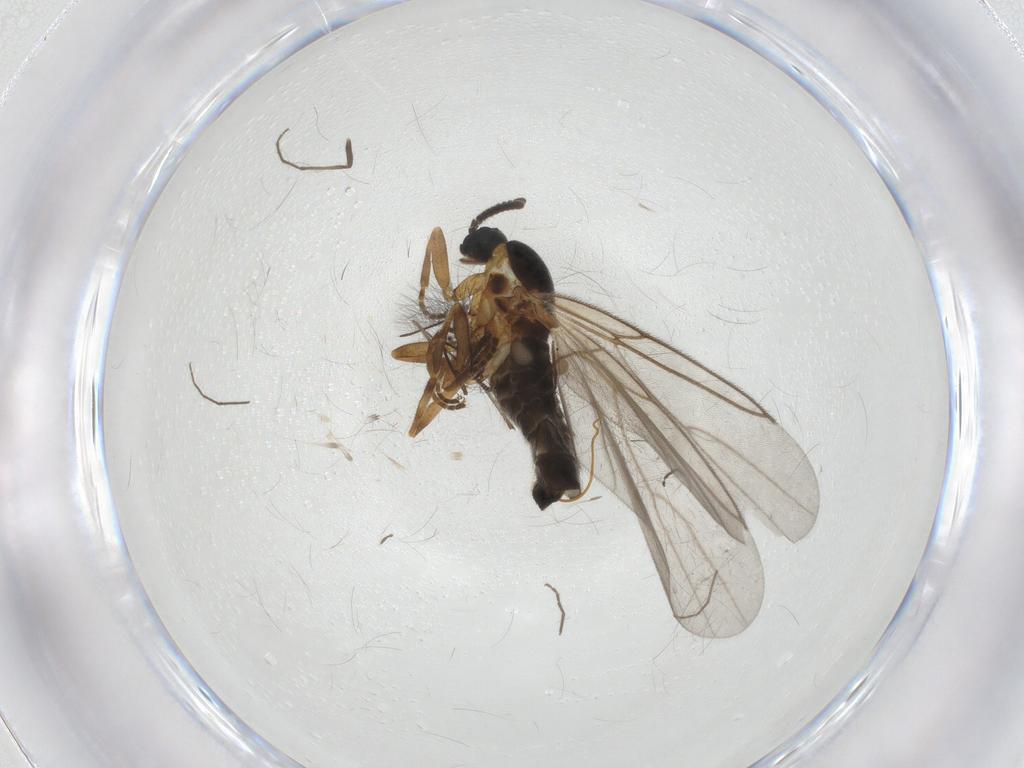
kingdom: Animalia
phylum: Arthropoda
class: Insecta
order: Diptera
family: Scatopsidae
